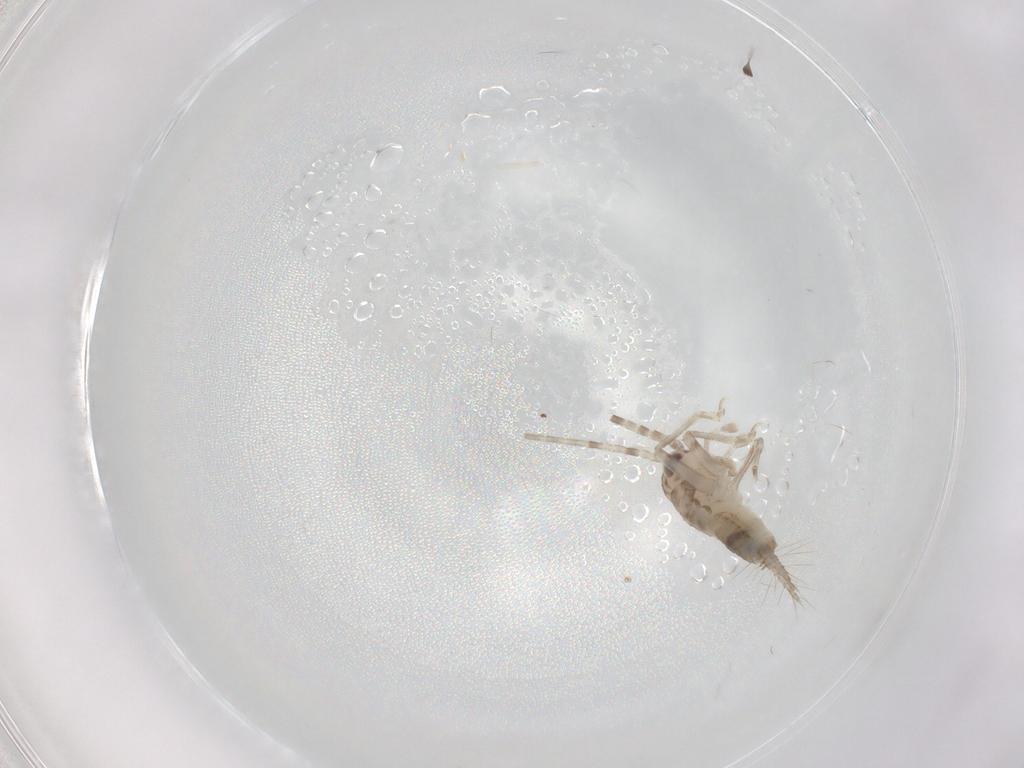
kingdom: Animalia
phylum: Arthropoda
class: Insecta
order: Orthoptera
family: Trigonidiidae
